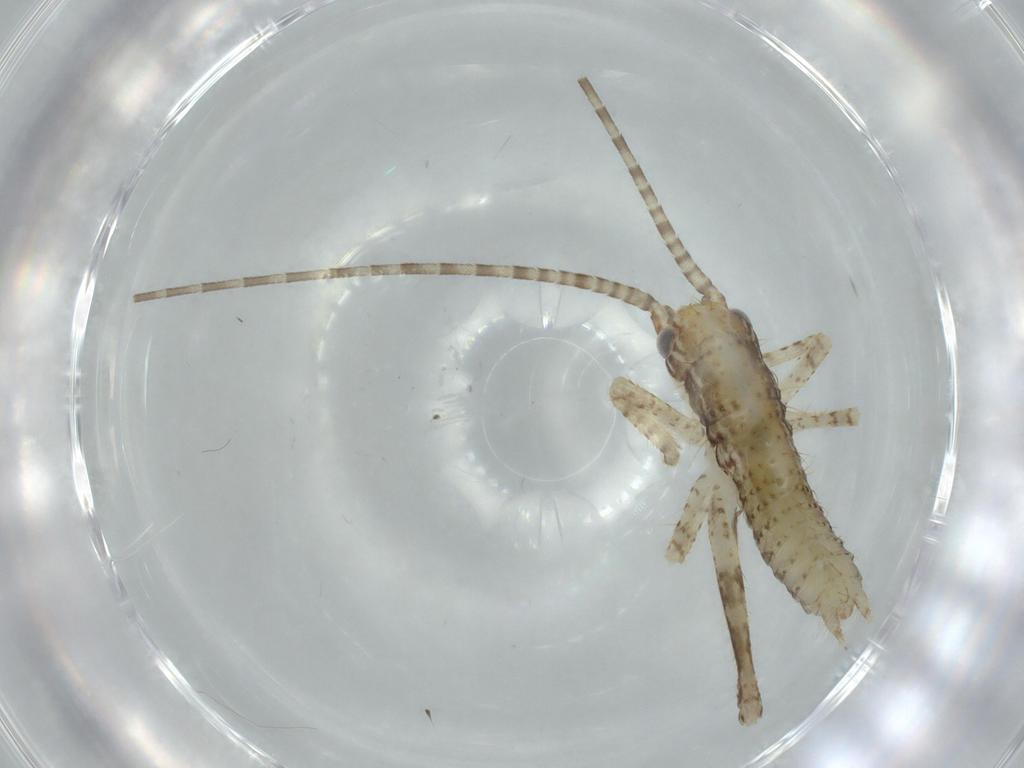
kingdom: Animalia
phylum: Arthropoda
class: Insecta
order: Orthoptera
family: Gryllidae
